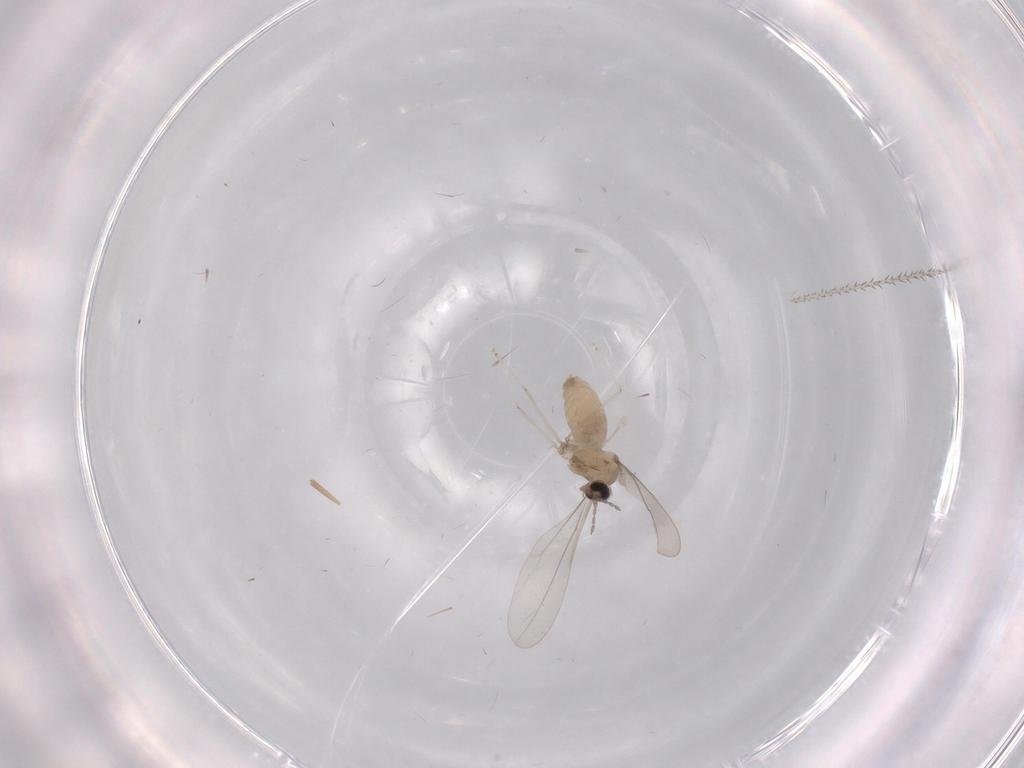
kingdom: Animalia
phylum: Arthropoda
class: Insecta
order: Diptera
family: Cecidomyiidae
